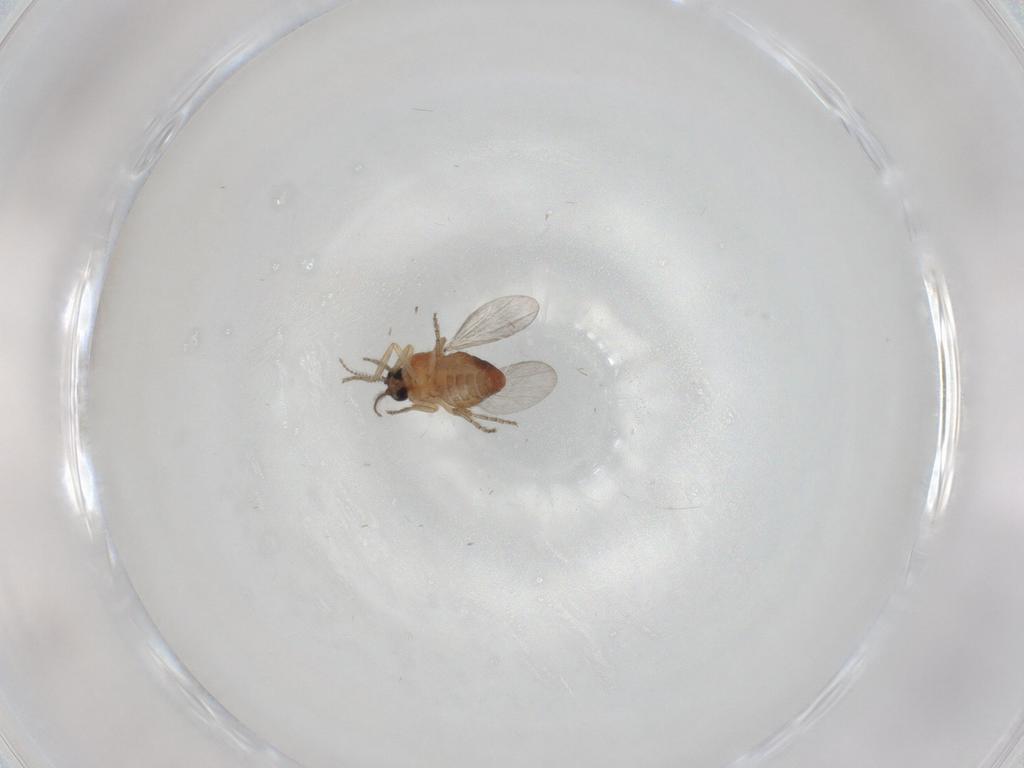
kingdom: Animalia
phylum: Arthropoda
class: Insecta
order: Diptera
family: Ceratopogonidae
